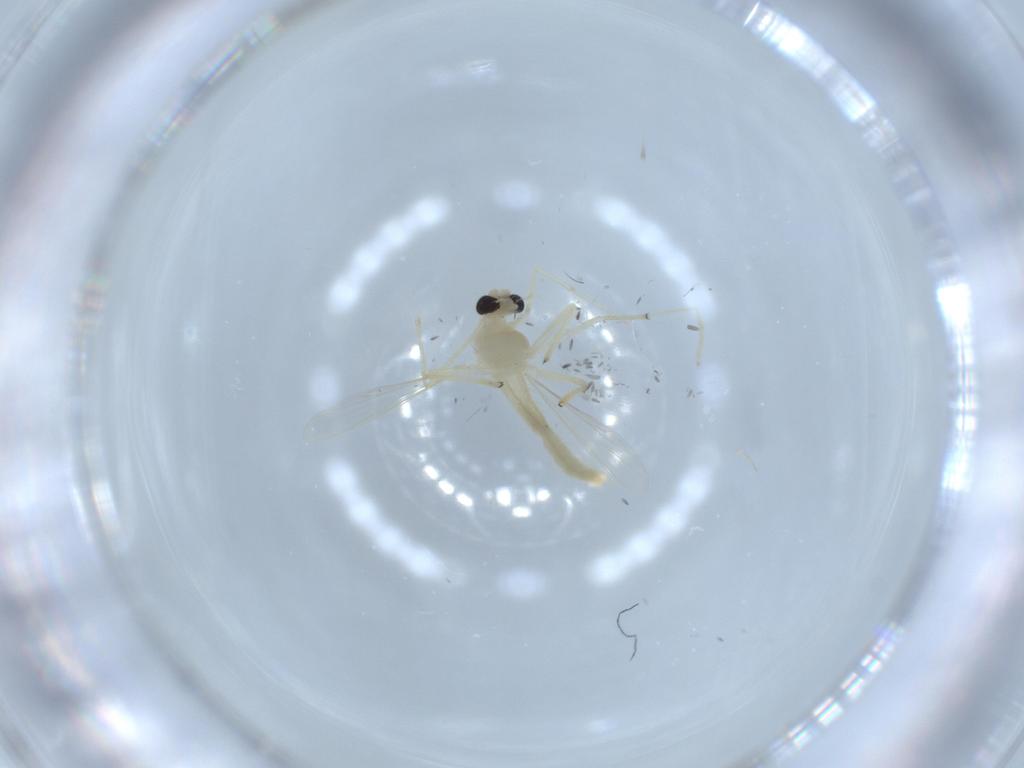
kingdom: Animalia
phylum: Arthropoda
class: Insecta
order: Diptera
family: Chironomidae
